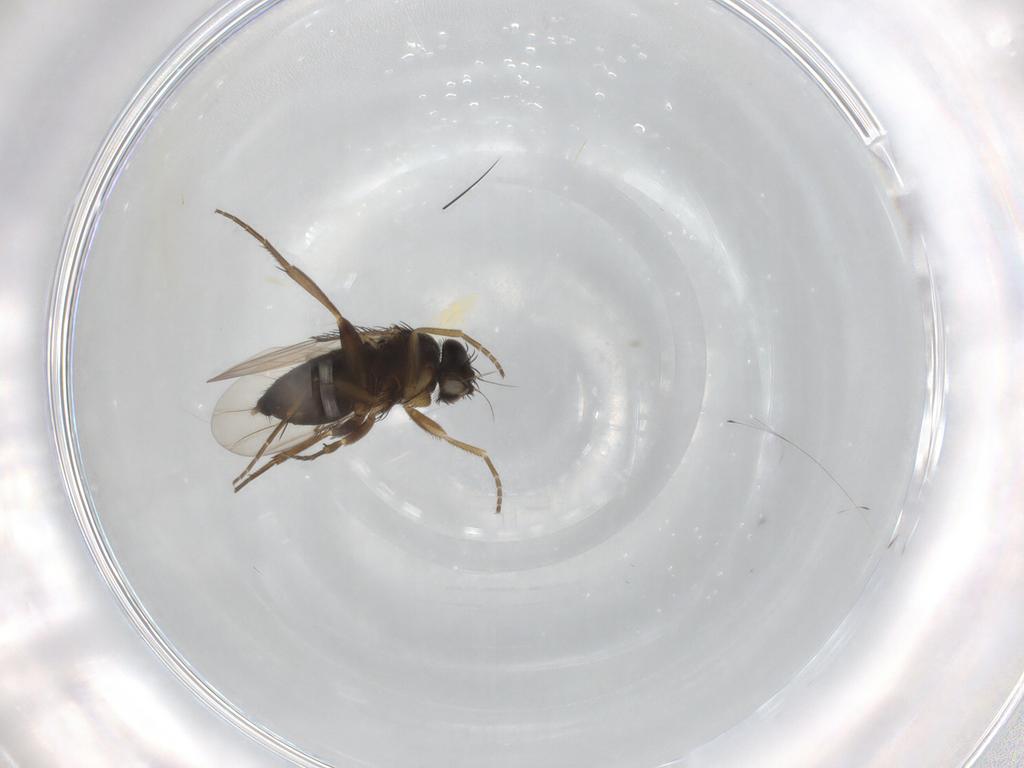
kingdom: Animalia
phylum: Arthropoda
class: Insecta
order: Diptera
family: Phoridae
